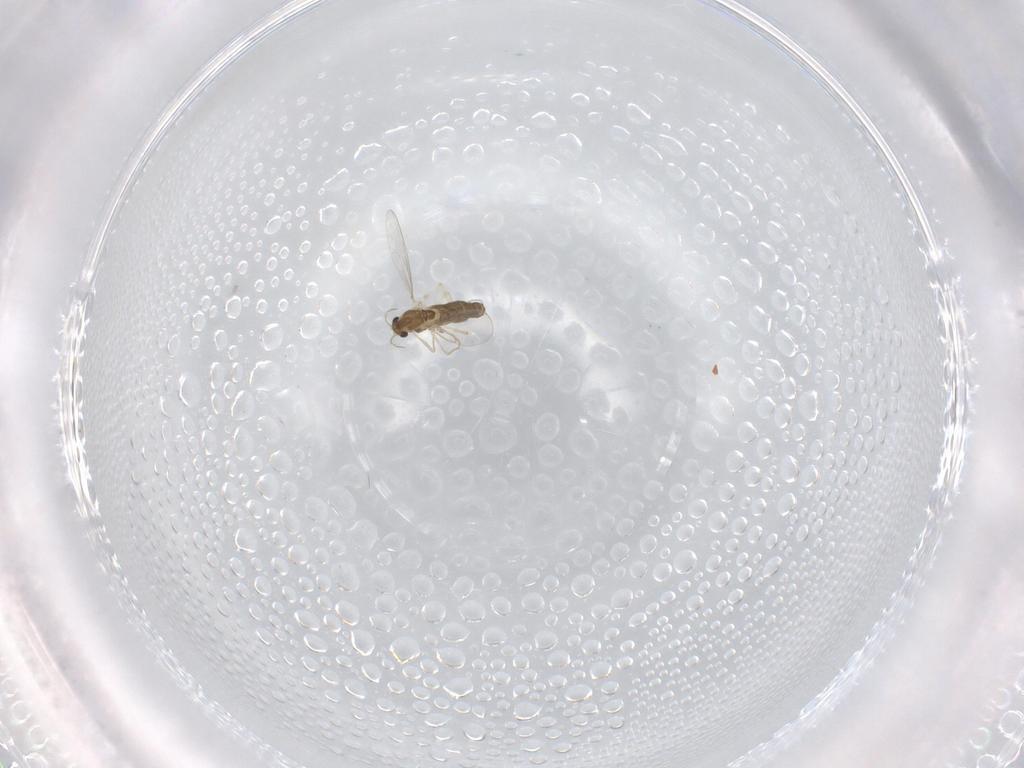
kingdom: Animalia
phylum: Arthropoda
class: Insecta
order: Diptera
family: Chironomidae
